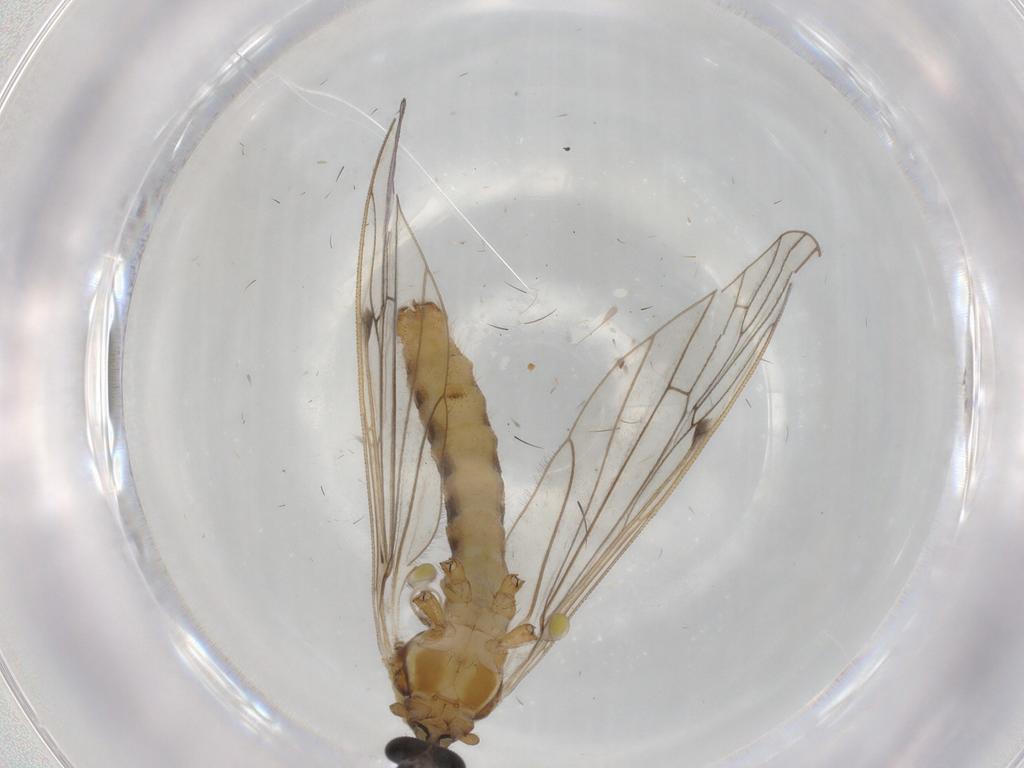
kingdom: Animalia
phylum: Arthropoda
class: Insecta
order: Diptera
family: Chironomidae
